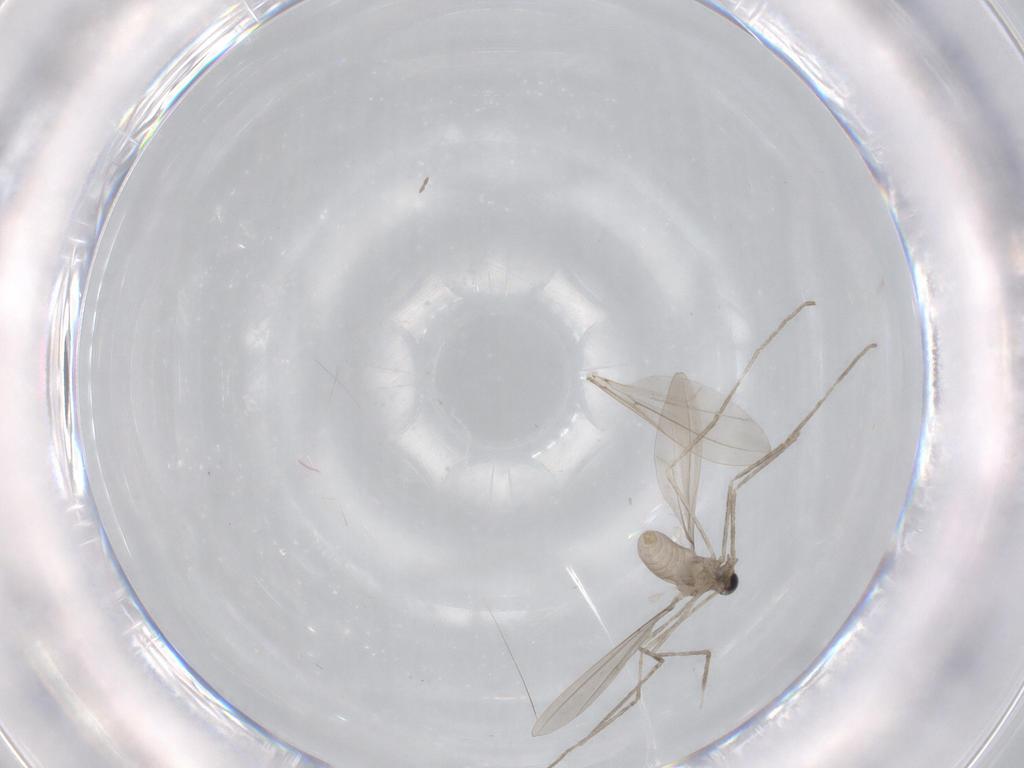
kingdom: Animalia
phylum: Arthropoda
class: Insecta
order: Diptera
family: Cecidomyiidae
